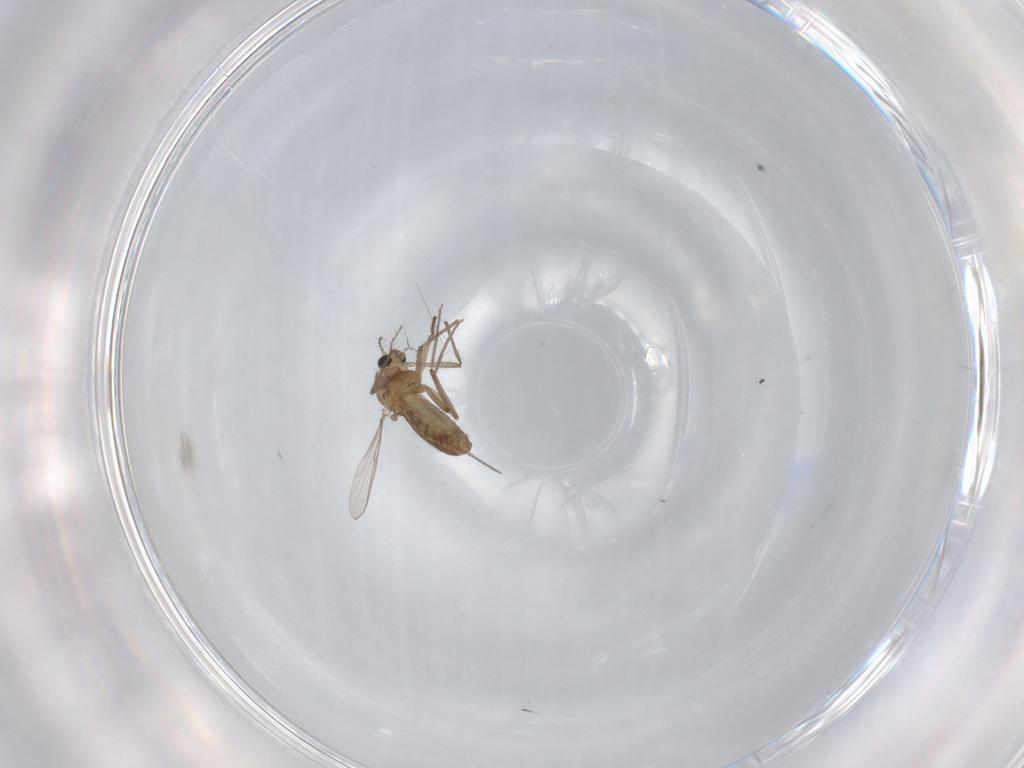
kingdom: Animalia
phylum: Arthropoda
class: Insecta
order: Diptera
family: Chironomidae
